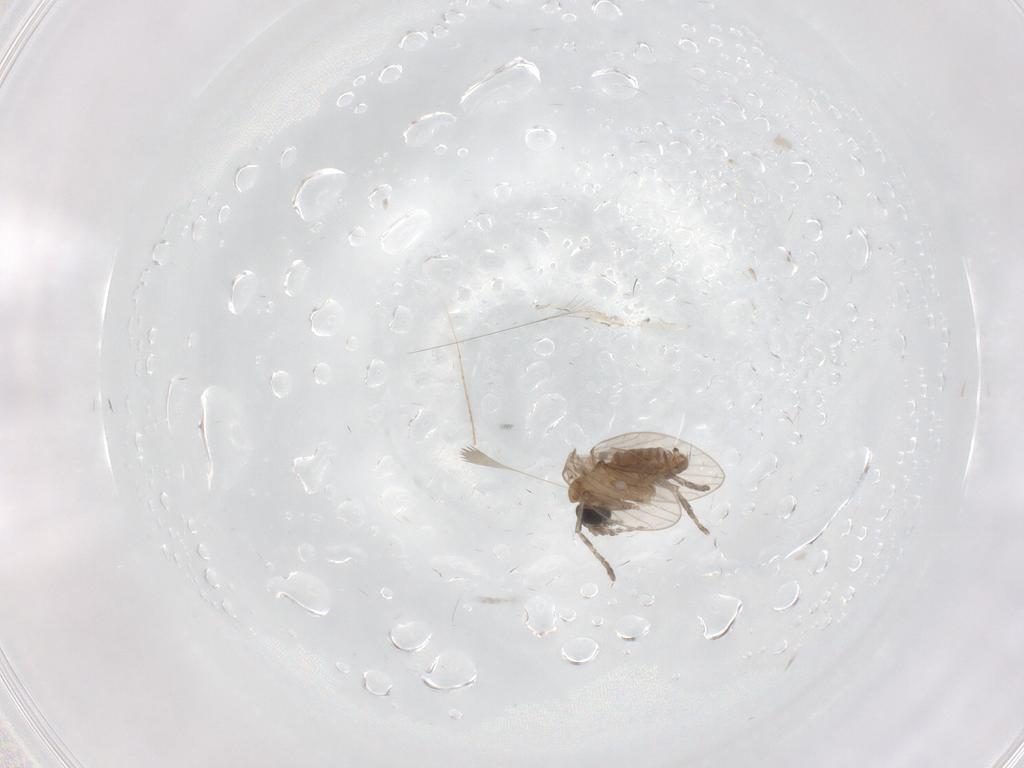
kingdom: Animalia
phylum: Arthropoda
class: Insecta
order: Diptera
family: Psychodidae
